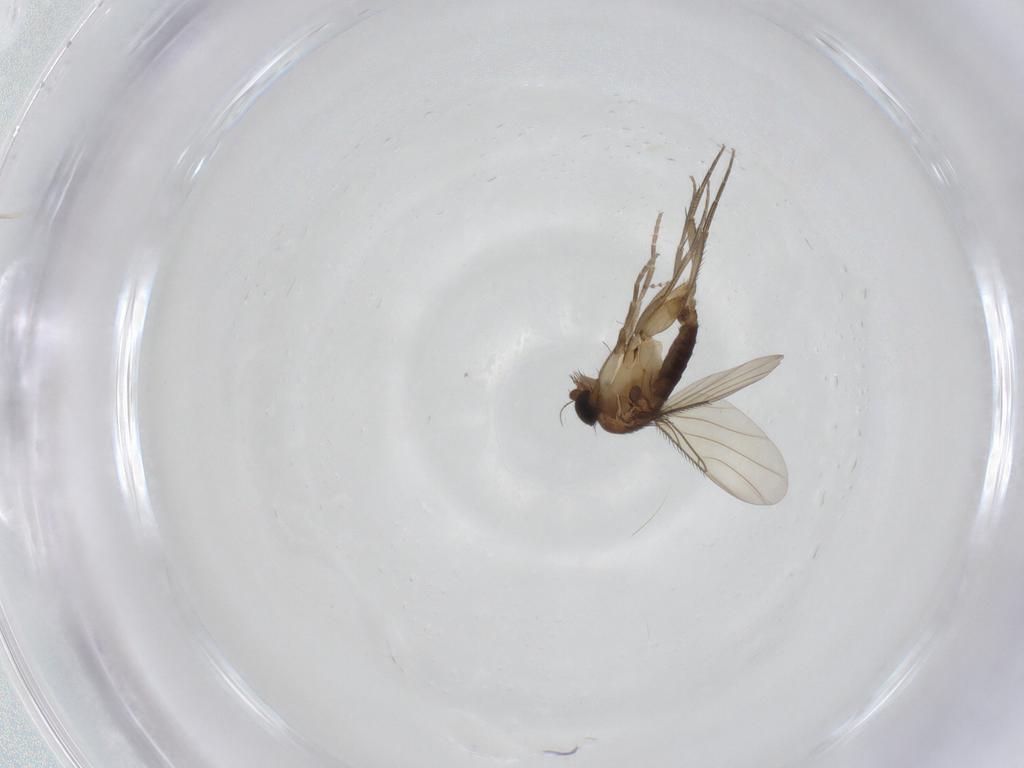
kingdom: Animalia
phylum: Arthropoda
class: Insecta
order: Diptera
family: Phoridae
